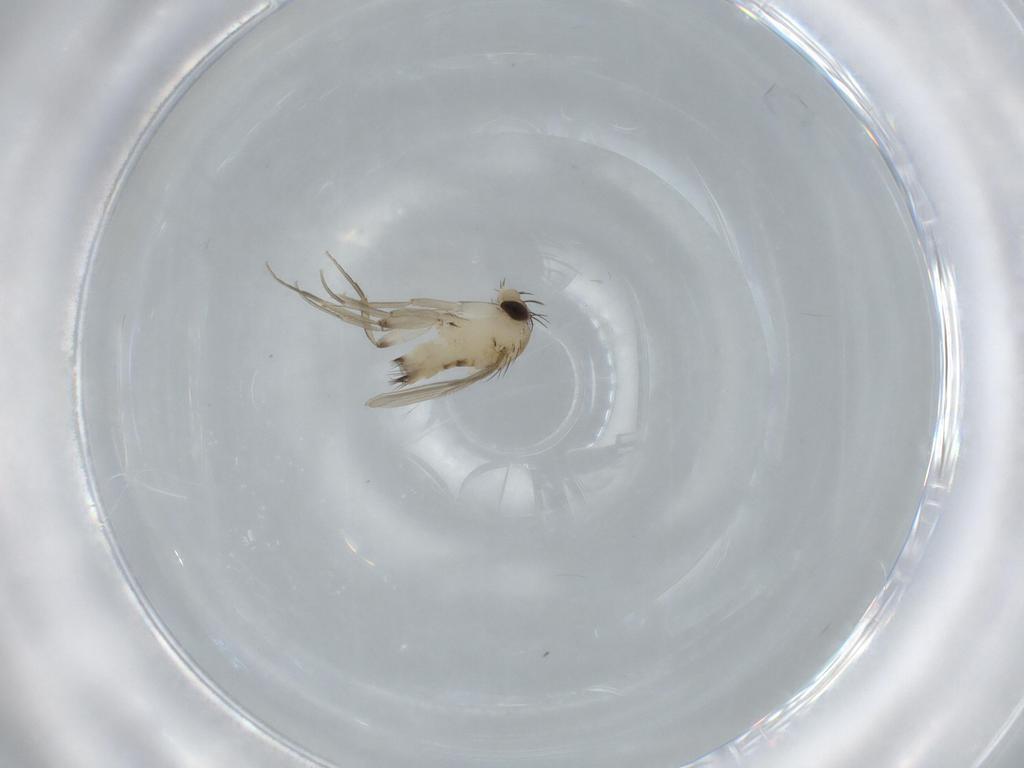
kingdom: Animalia
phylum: Arthropoda
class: Insecta
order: Diptera
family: Phoridae
